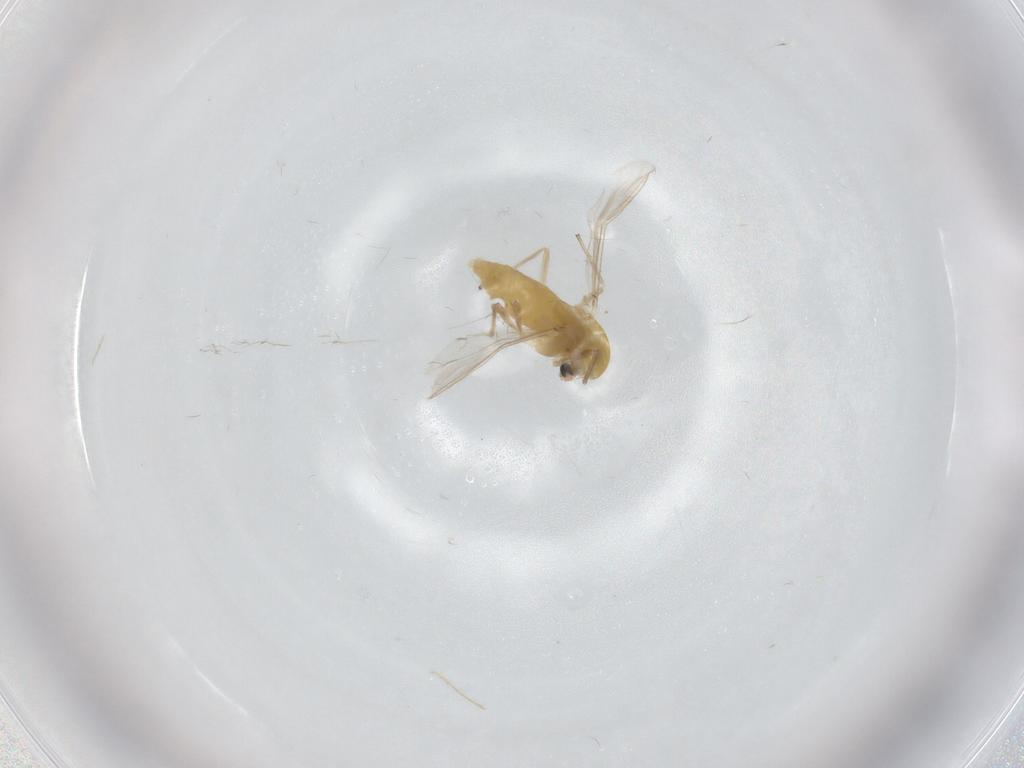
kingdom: Animalia
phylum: Arthropoda
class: Insecta
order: Diptera
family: Chironomidae
